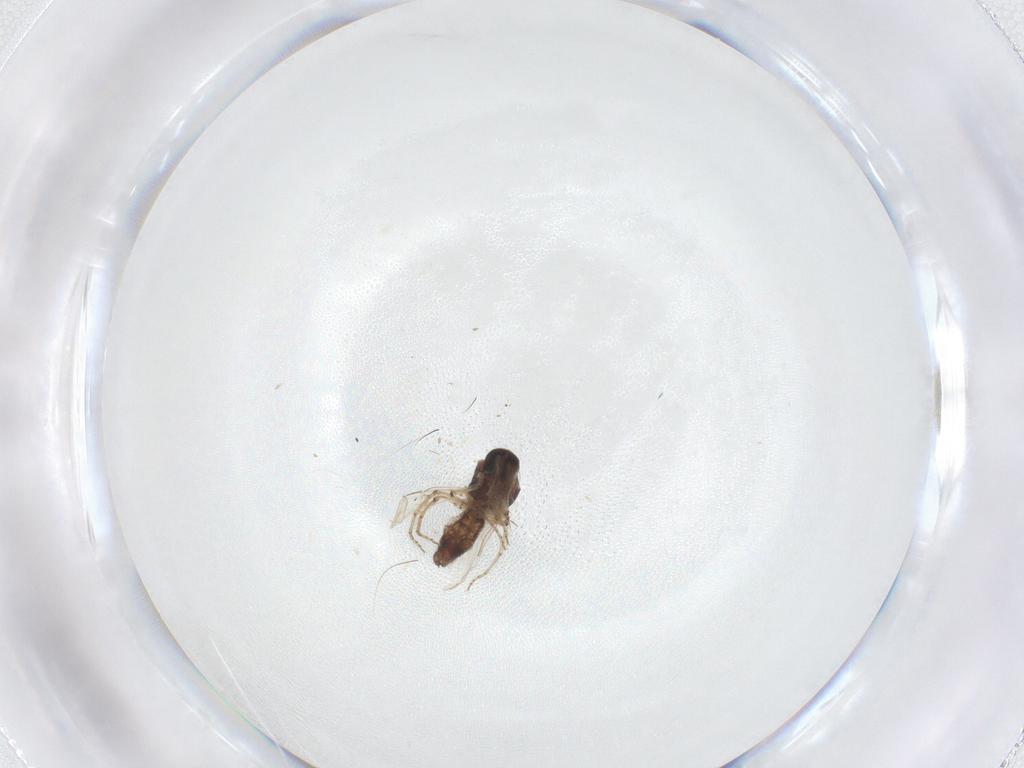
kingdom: Animalia
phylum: Arthropoda
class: Insecta
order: Diptera
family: Ceratopogonidae
